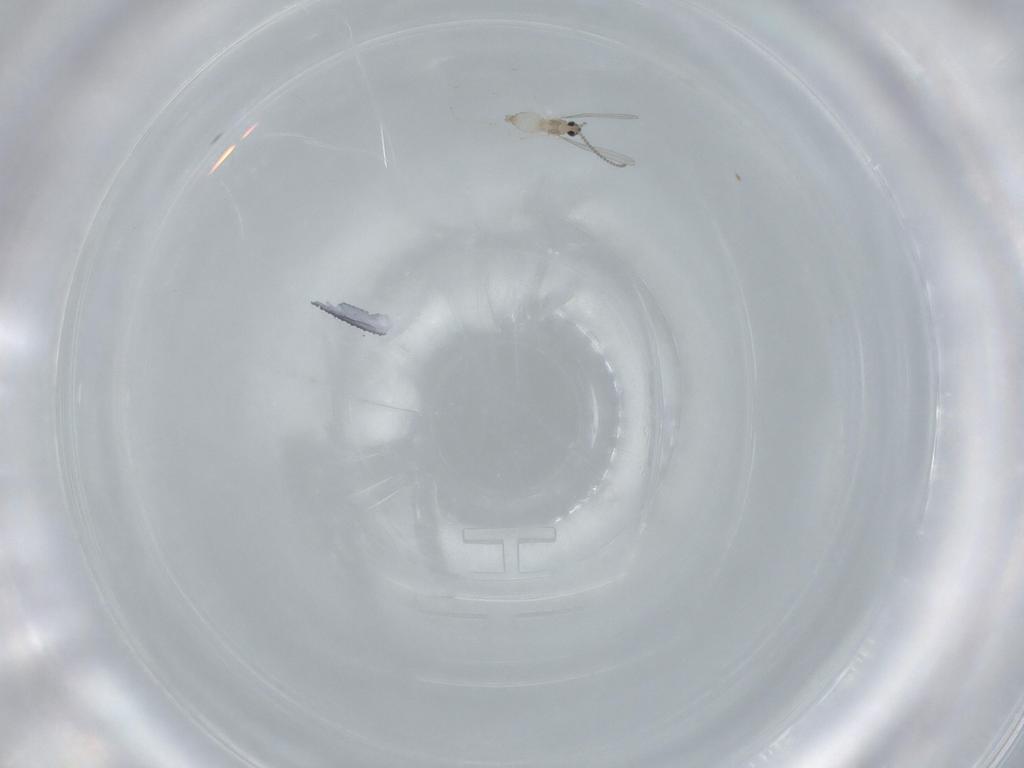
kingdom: Animalia
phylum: Arthropoda
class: Insecta
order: Diptera
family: Cecidomyiidae
